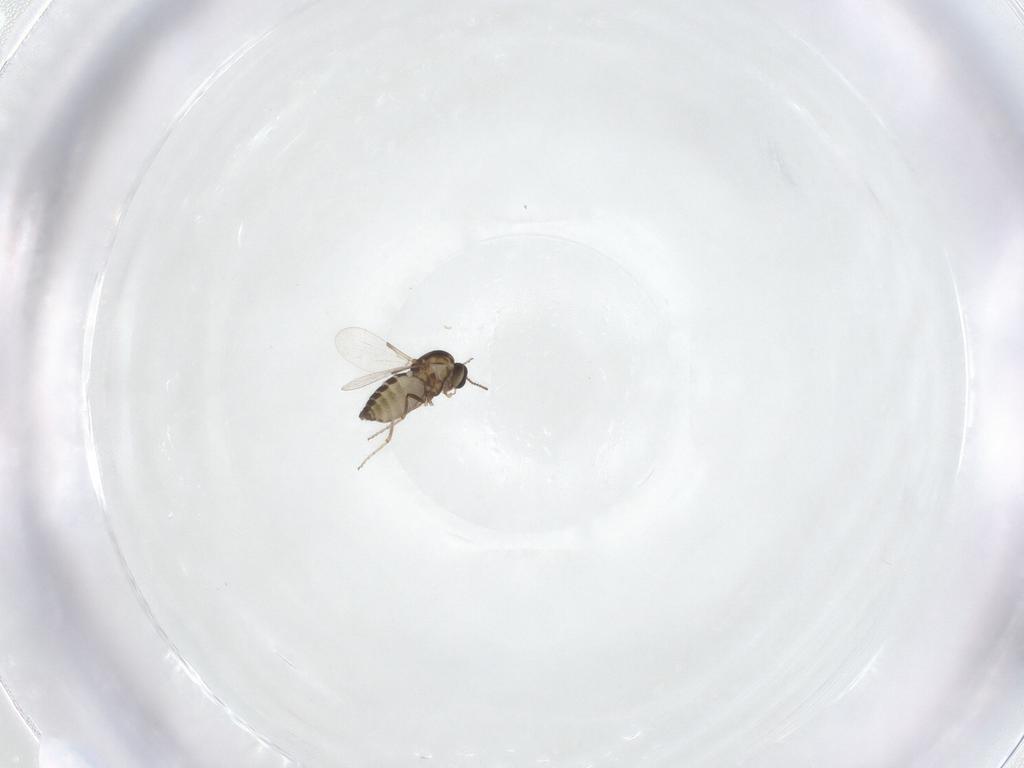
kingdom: Animalia
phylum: Arthropoda
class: Insecta
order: Diptera
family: Ceratopogonidae
